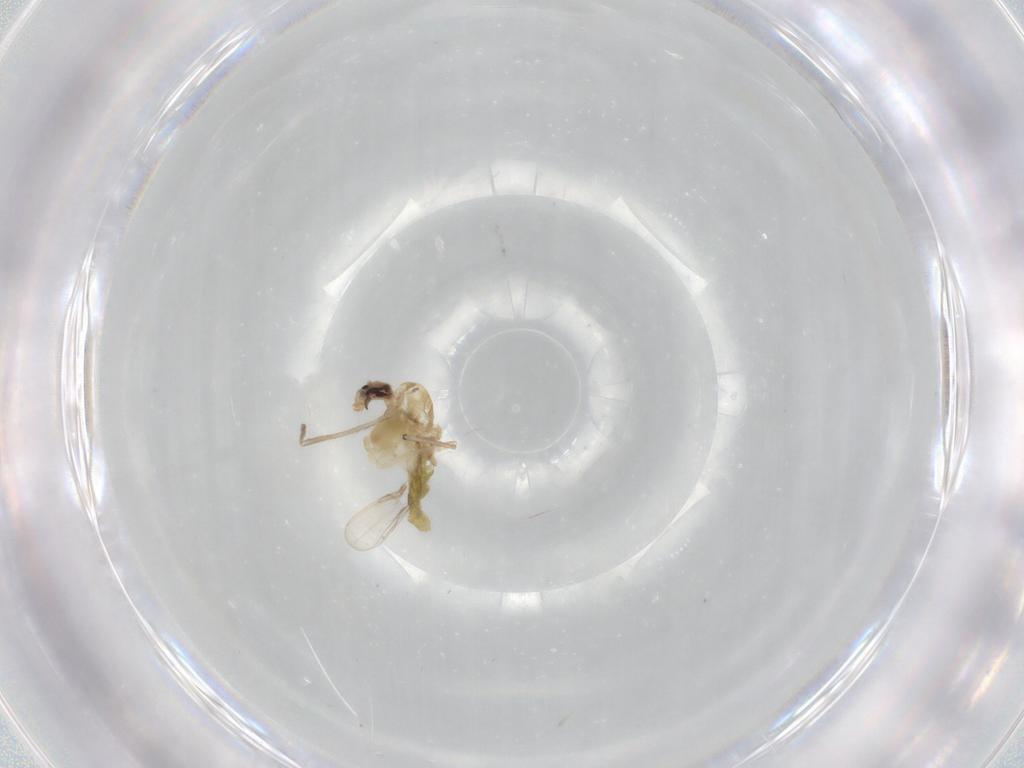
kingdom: Animalia
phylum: Arthropoda
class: Insecta
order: Diptera
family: Chironomidae
